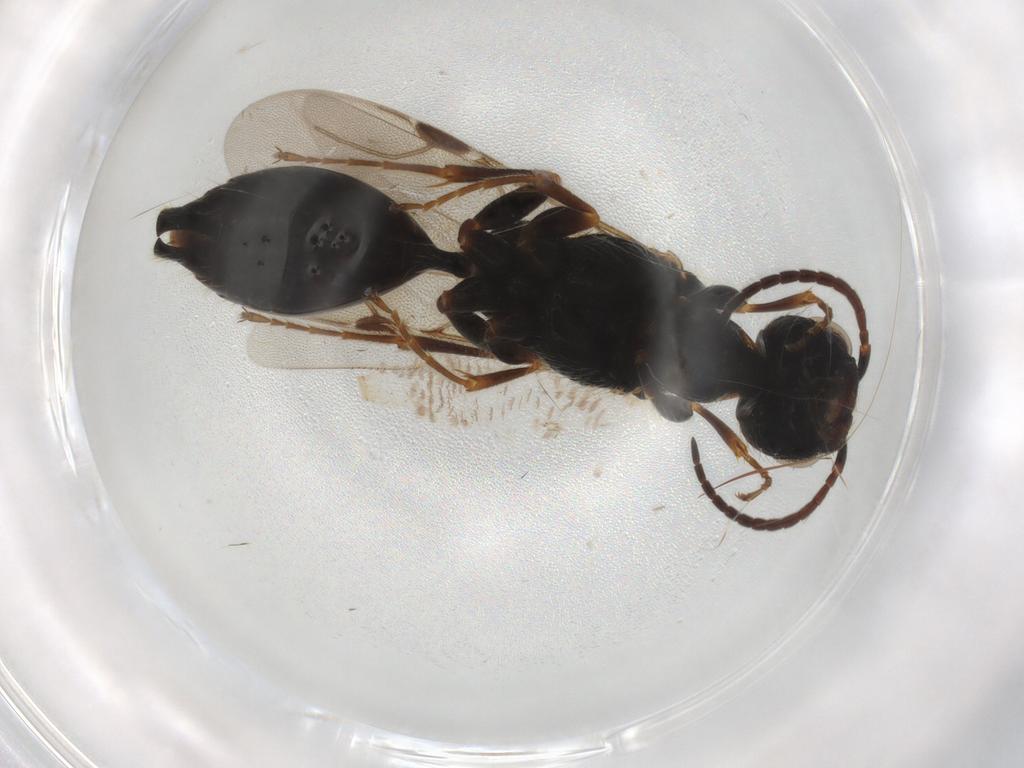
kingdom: Animalia
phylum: Arthropoda
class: Insecta
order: Hymenoptera
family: Bethylidae
